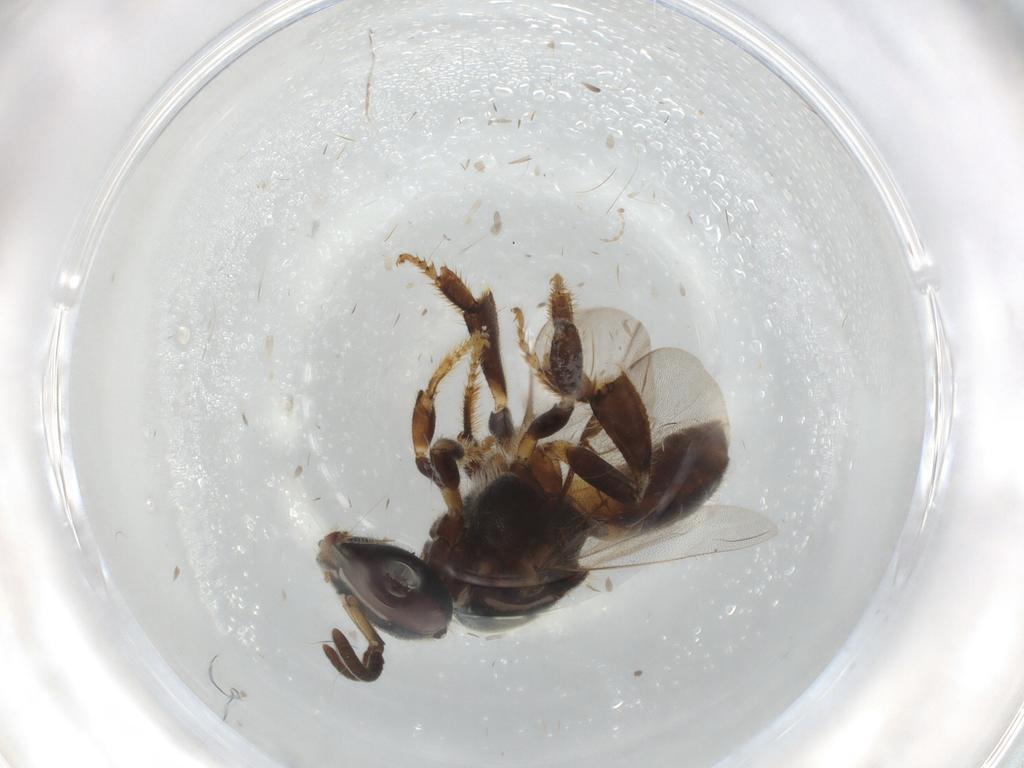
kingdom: Animalia
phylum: Arthropoda
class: Insecta
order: Hymenoptera
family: Apidae
